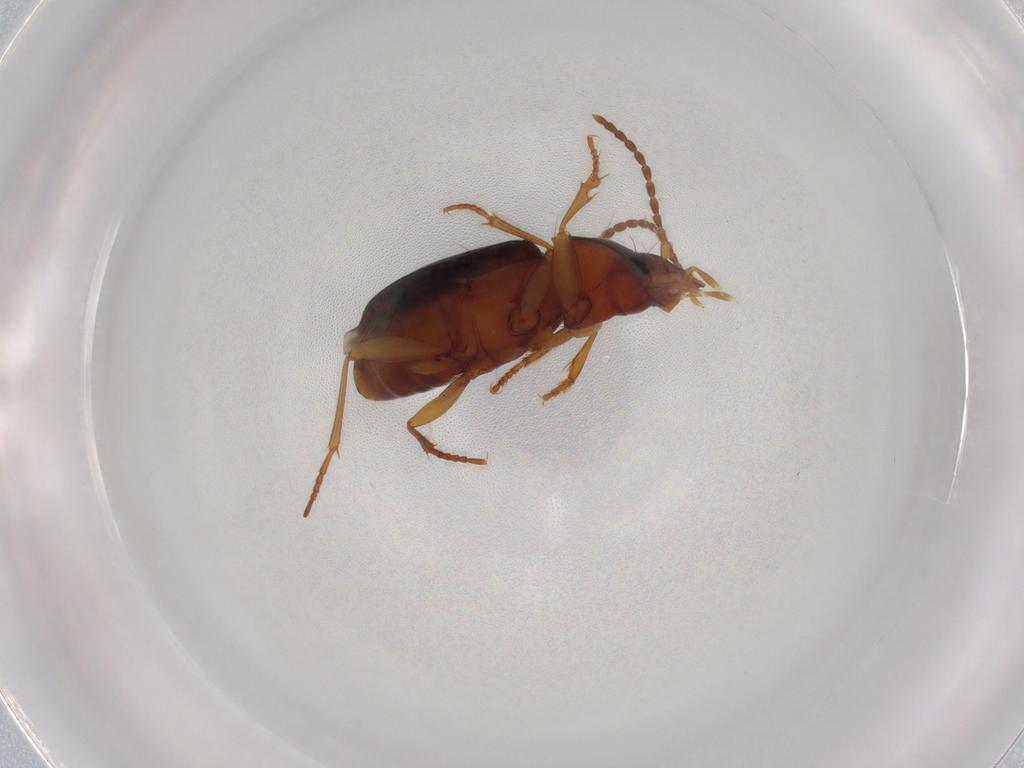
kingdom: Animalia
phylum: Arthropoda
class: Insecta
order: Coleoptera
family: Carabidae
